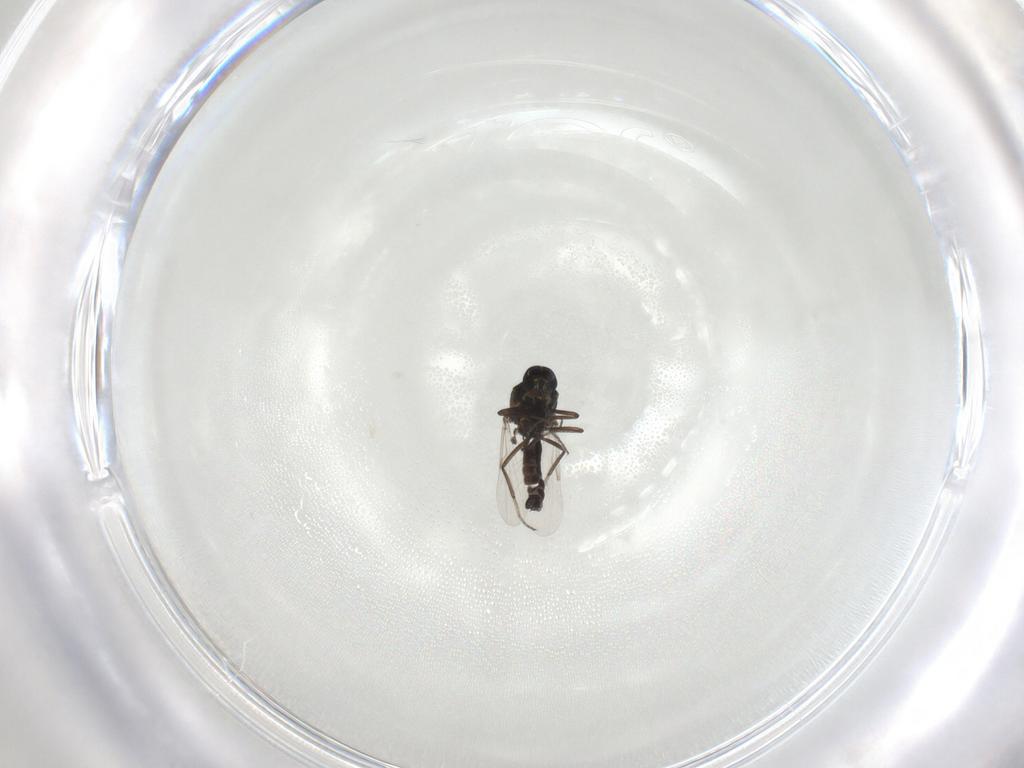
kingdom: Animalia
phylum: Arthropoda
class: Insecta
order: Diptera
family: Ceratopogonidae
